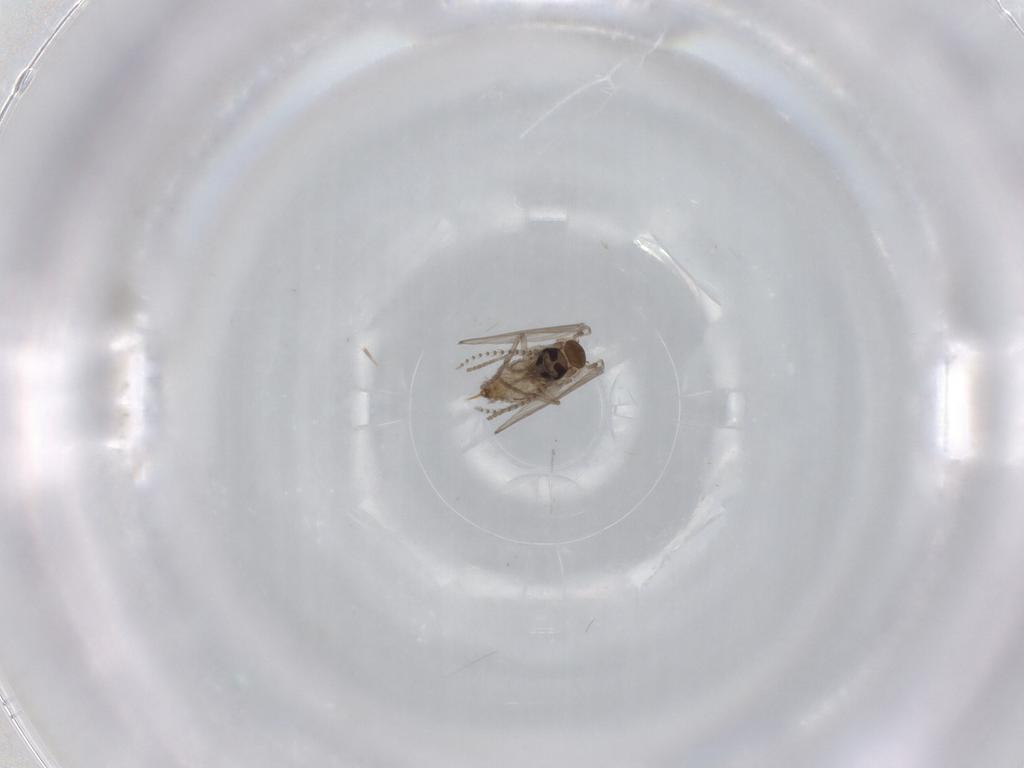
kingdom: Animalia
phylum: Arthropoda
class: Insecta
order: Diptera
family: Psychodidae
